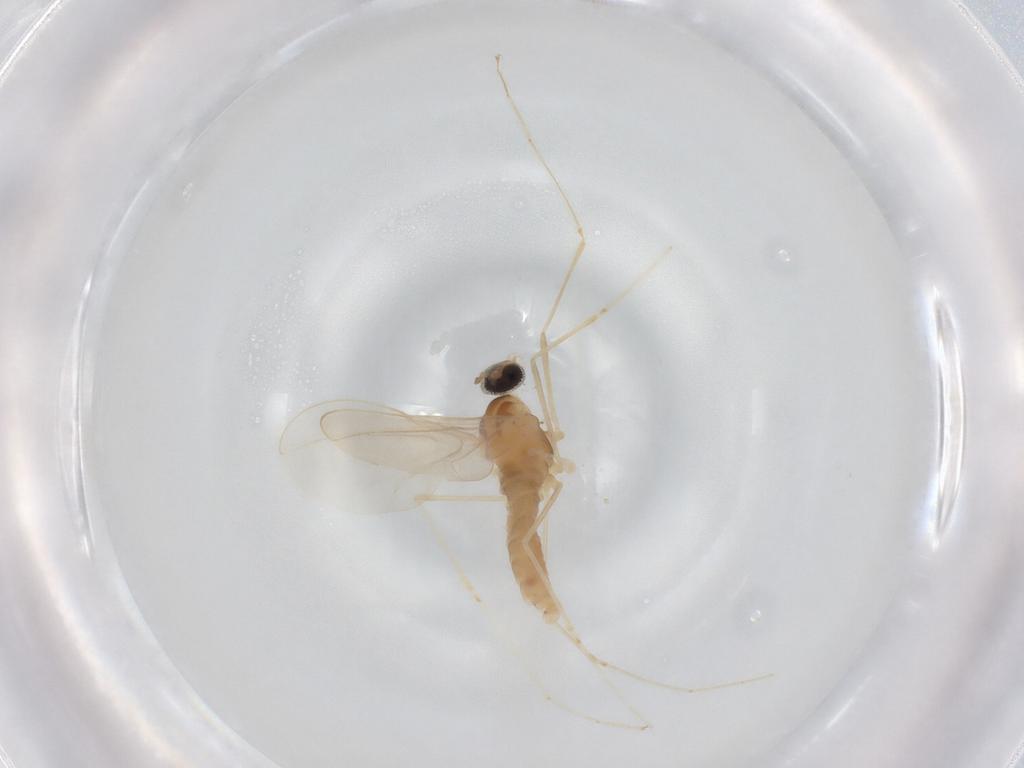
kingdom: Animalia
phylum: Arthropoda
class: Insecta
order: Diptera
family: Cecidomyiidae
